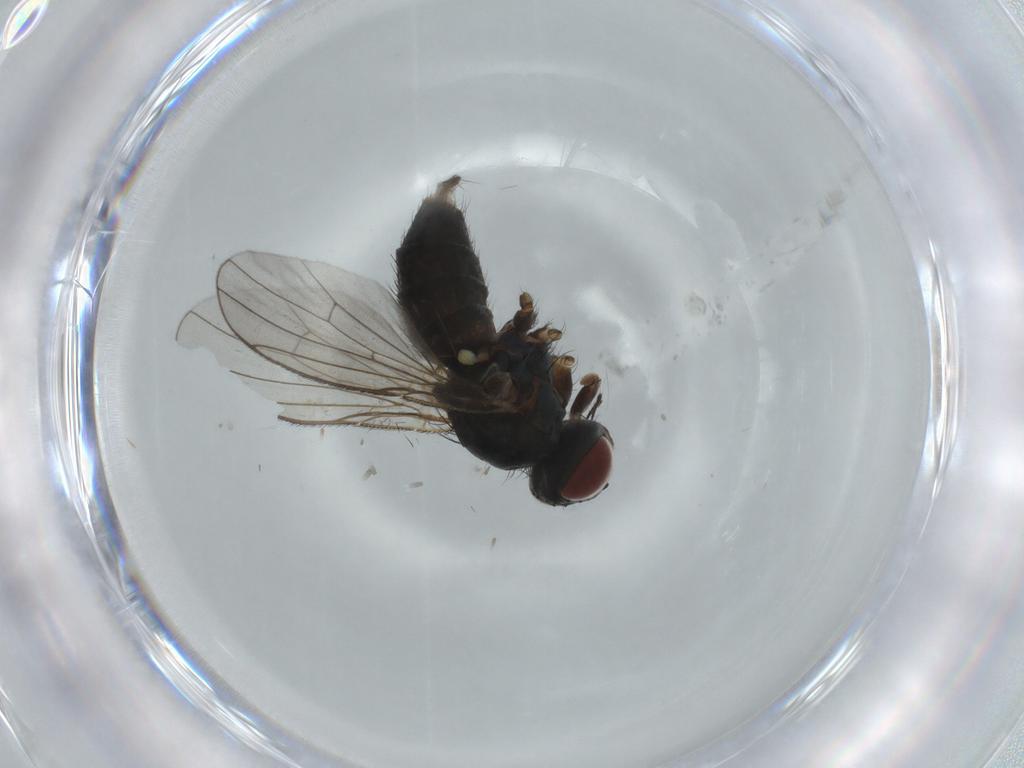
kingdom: Animalia
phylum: Arthropoda
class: Insecta
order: Diptera
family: Muscidae
